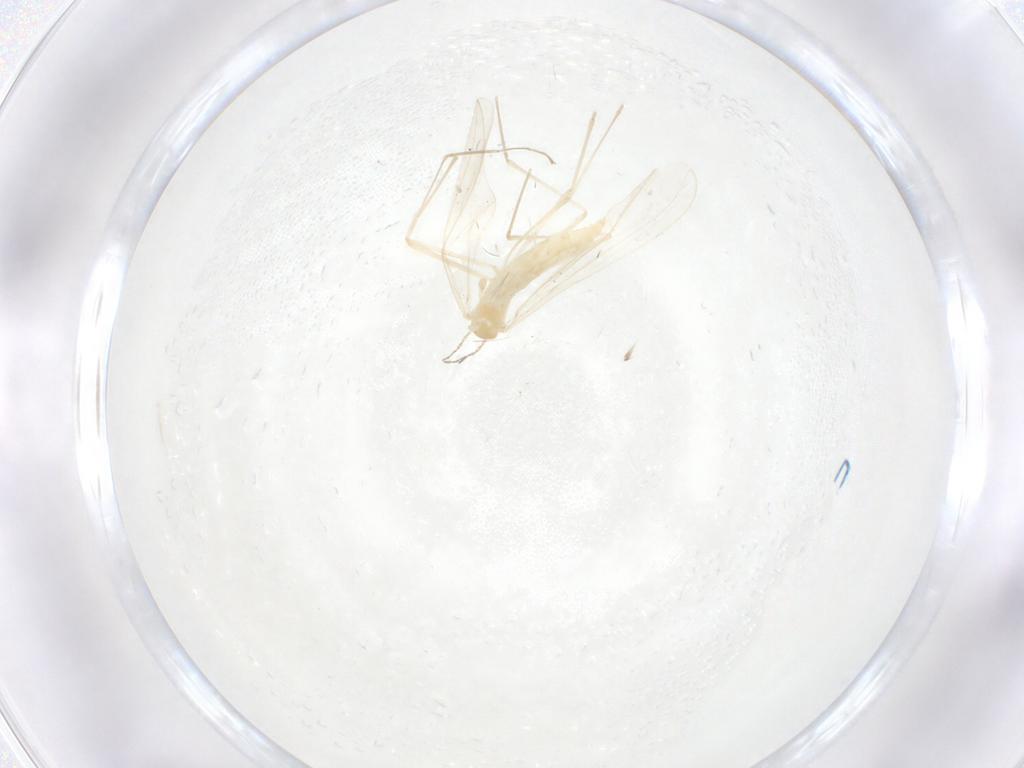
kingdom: Animalia
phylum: Arthropoda
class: Insecta
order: Diptera
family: Cecidomyiidae
